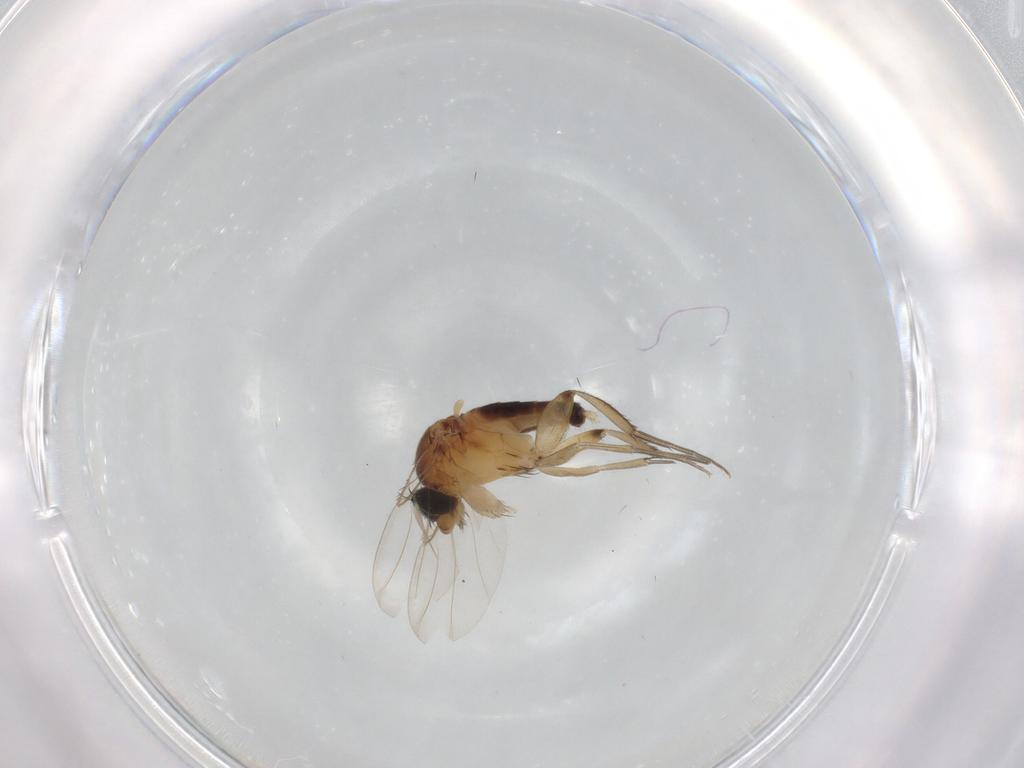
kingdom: Animalia
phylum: Arthropoda
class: Insecta
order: Diptera
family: Phoridae
